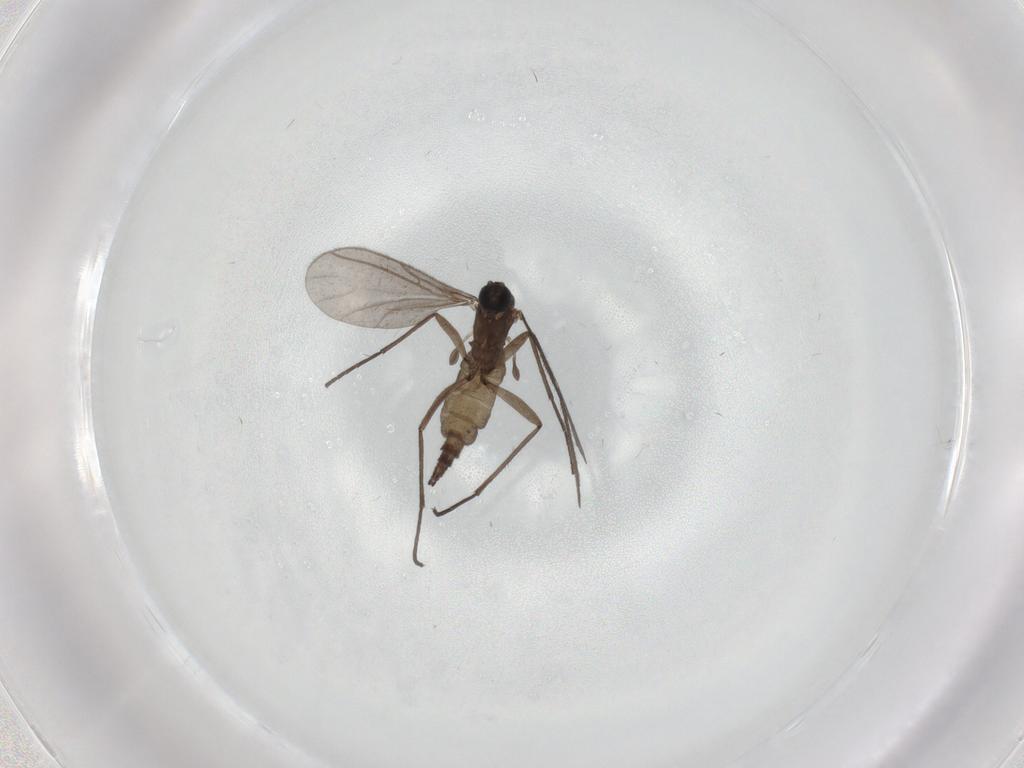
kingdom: Animalia
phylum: Arthropoda
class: Insecta
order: Diptera
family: Sciaridae
